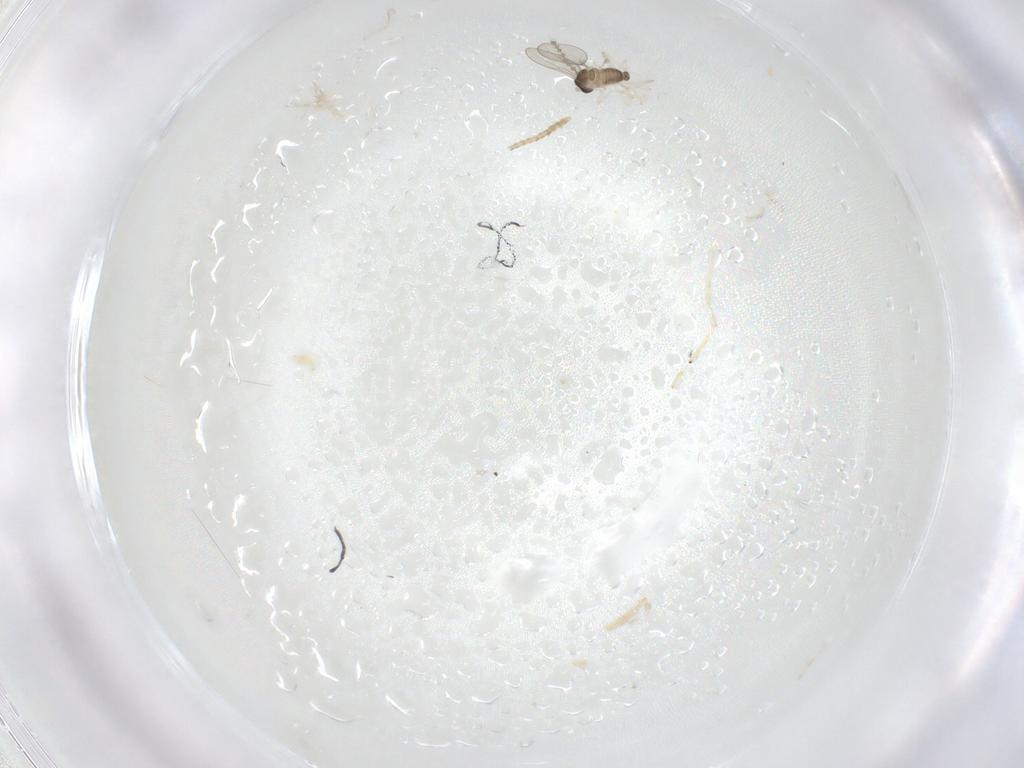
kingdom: Animalia
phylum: Arthropoda
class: Insecta
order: Diptera
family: Cecidomyiidae
